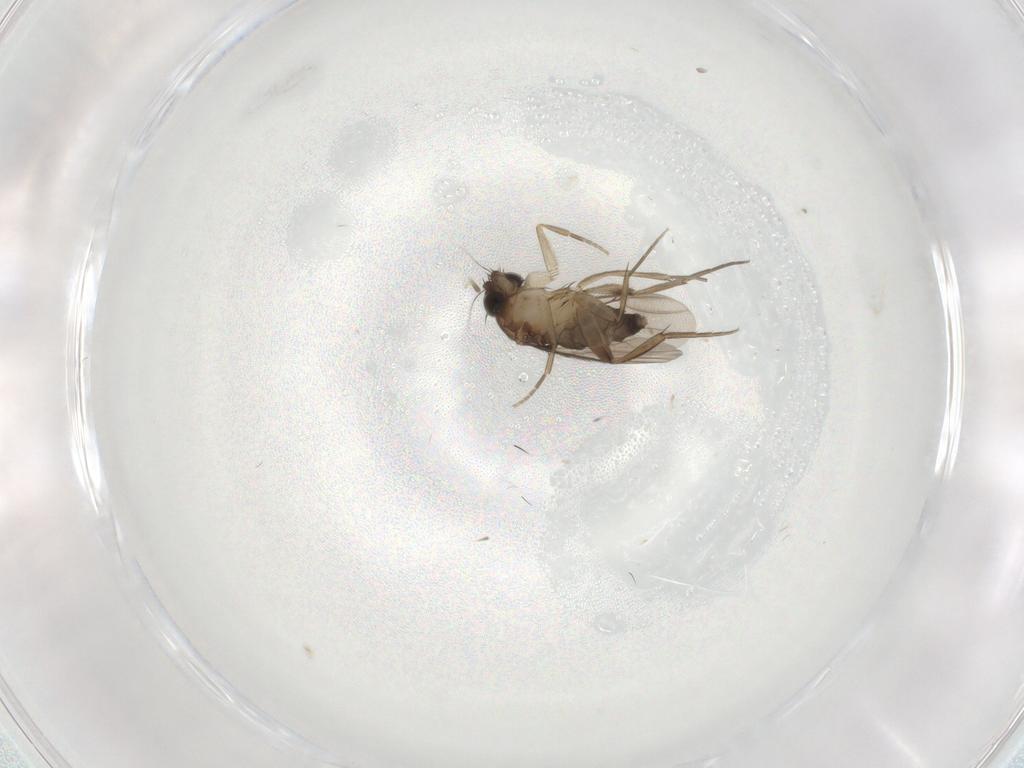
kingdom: Animalia
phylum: Arthropoda
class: Insecta
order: Diptera
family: Phoridae
